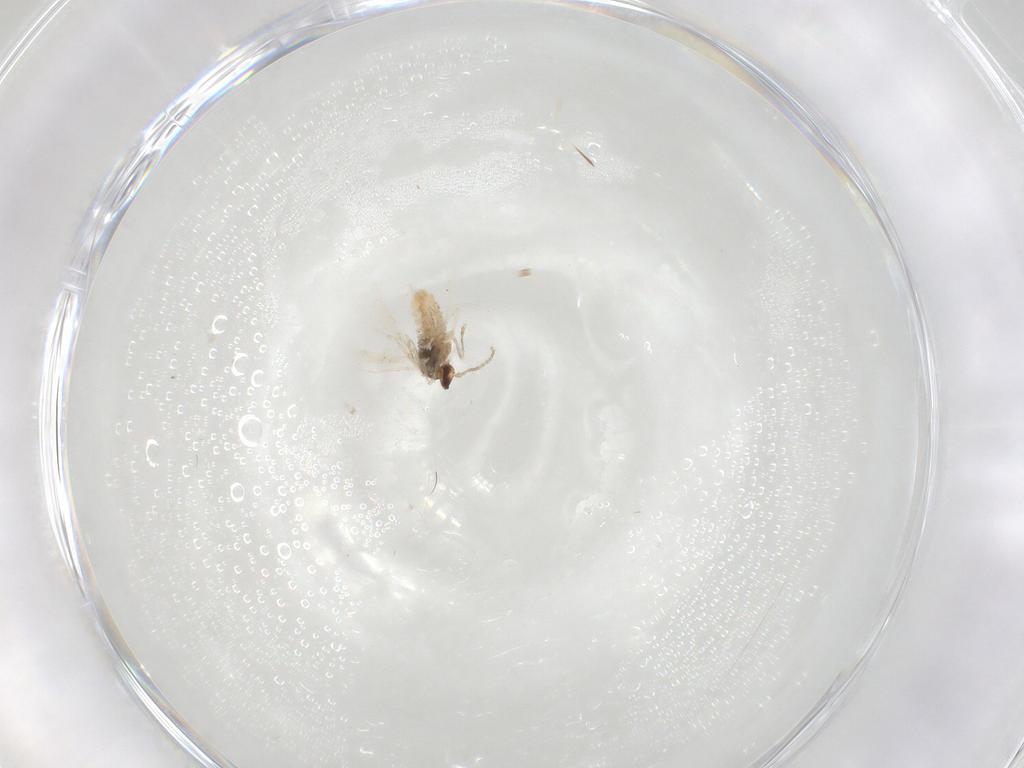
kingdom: Animalia
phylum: Arthropoda
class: Insecta
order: Diptera
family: Cecidomyiidae
